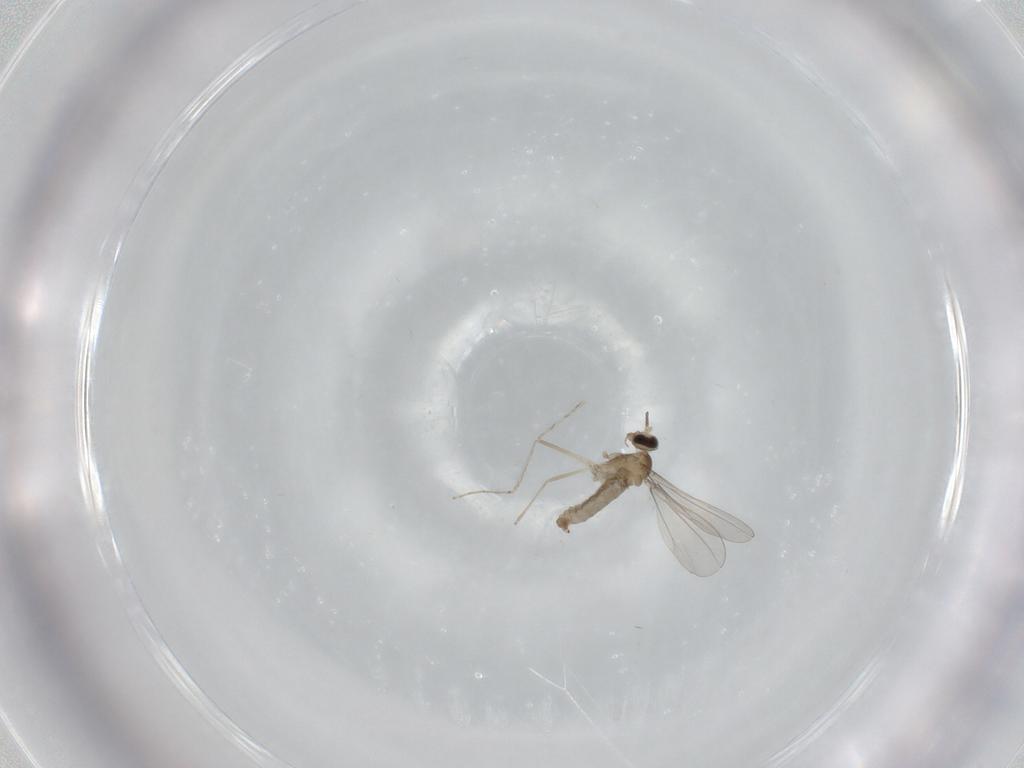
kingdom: Animalia
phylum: Arthropoda
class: Insecta
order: Diptera
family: Cecidomyiidae
